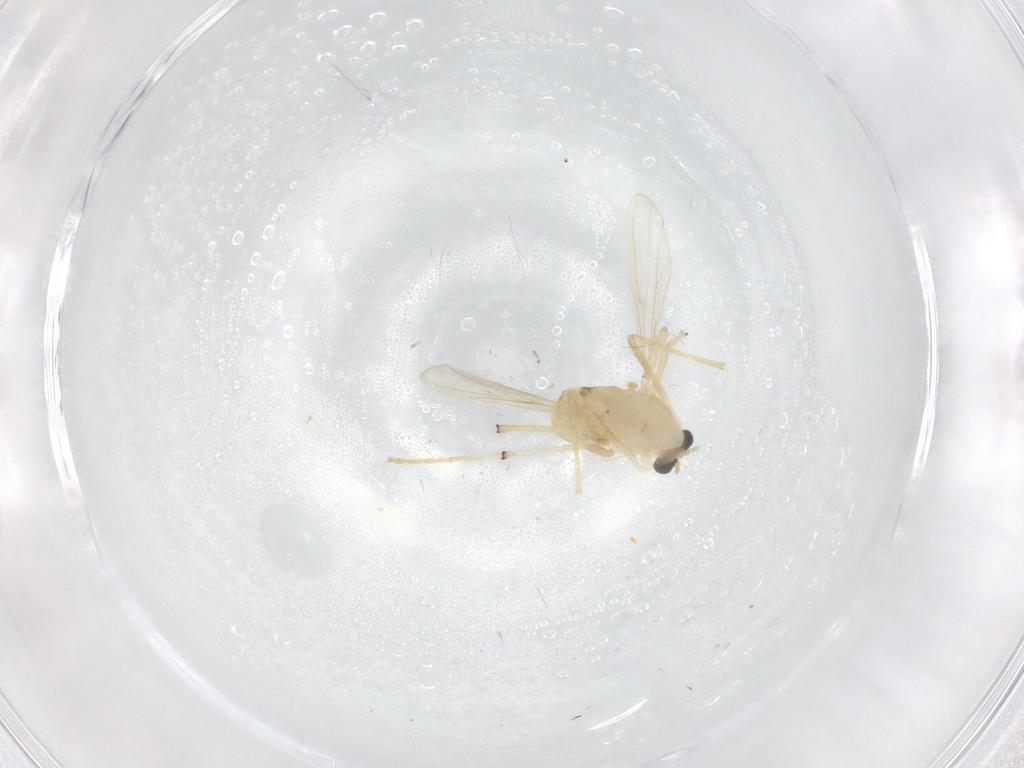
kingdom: Animalia
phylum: Arthropoda
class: Insecta
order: Diptera
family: Chironomidae
